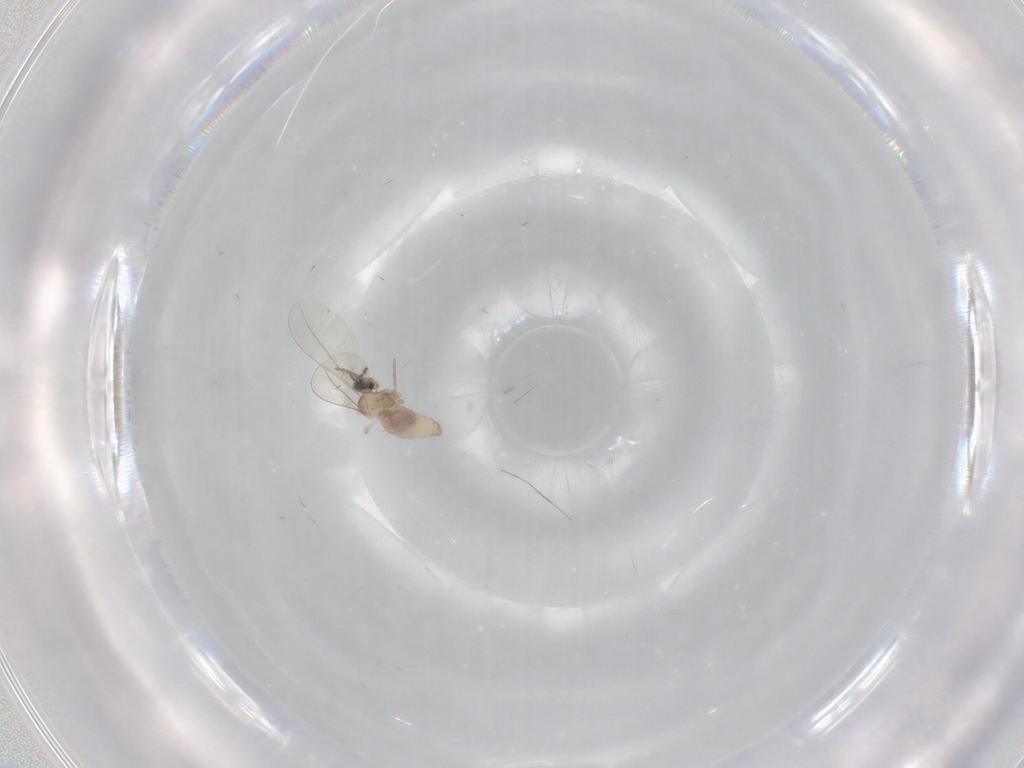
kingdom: Animalia
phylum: Arthropoda
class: Insecta
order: Diptera
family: Cecidomyiidae
